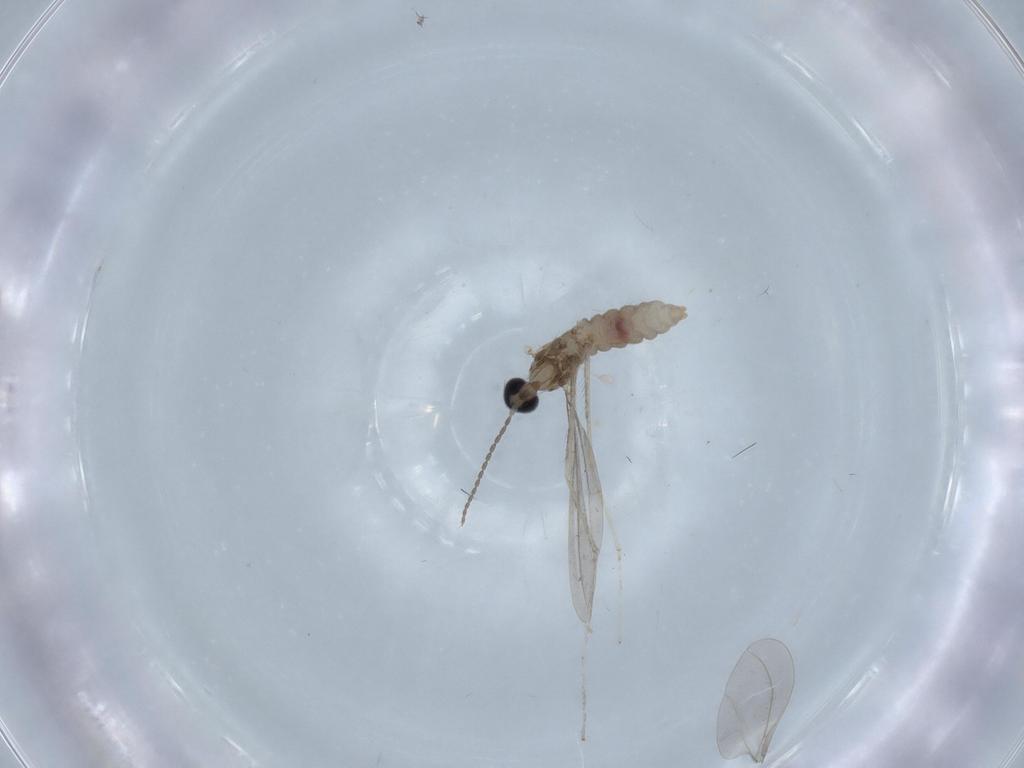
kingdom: Animalia
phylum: Arthropoda
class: Insecta
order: Diptera
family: Chironomidae
